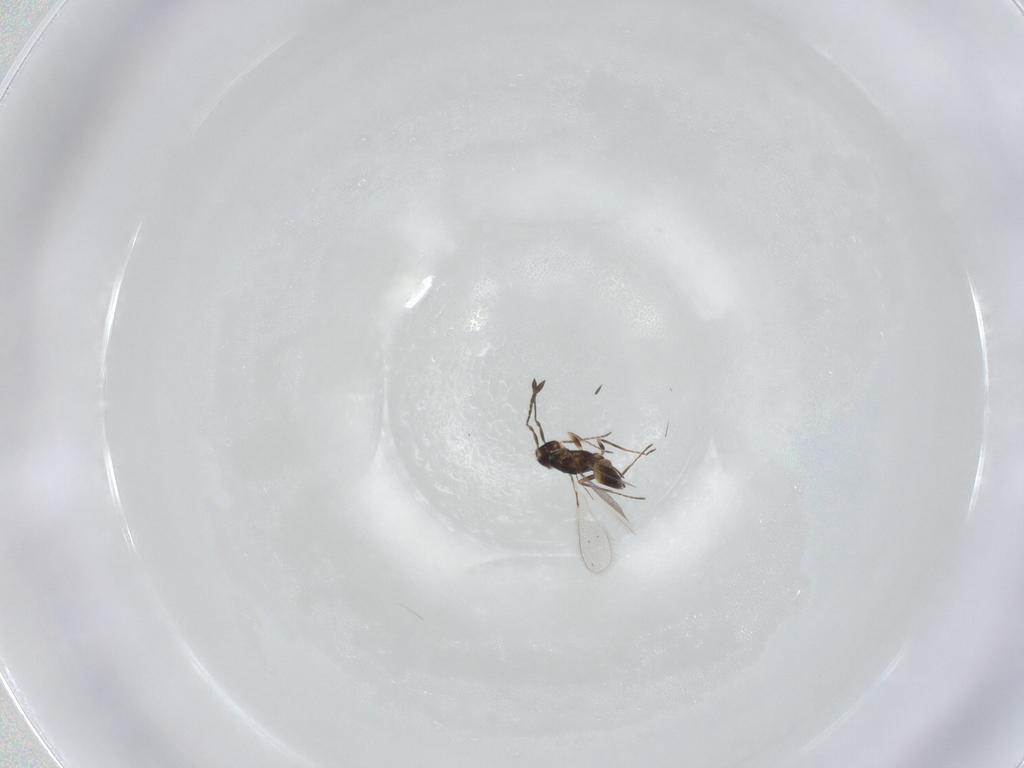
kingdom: Animalia
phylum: Arthropoda
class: Insecta
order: Hymenoptera
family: Mymaridae
